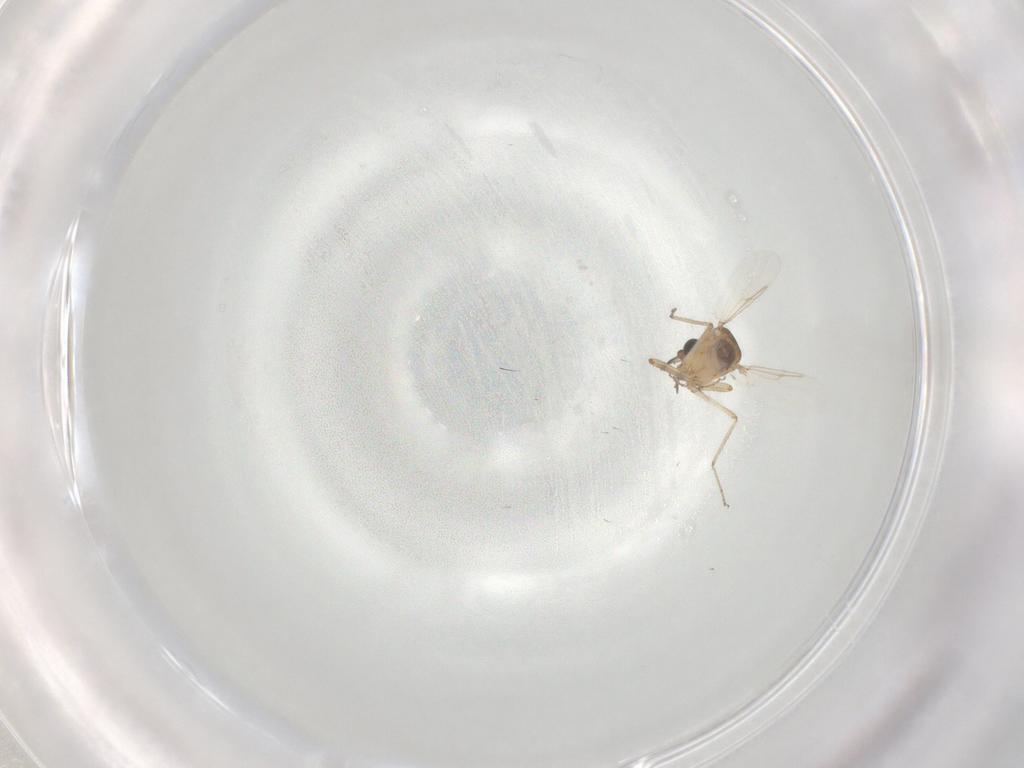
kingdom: Animalia
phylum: Arthropoda
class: Insecta
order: Diptera
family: Ceratopogonidae
